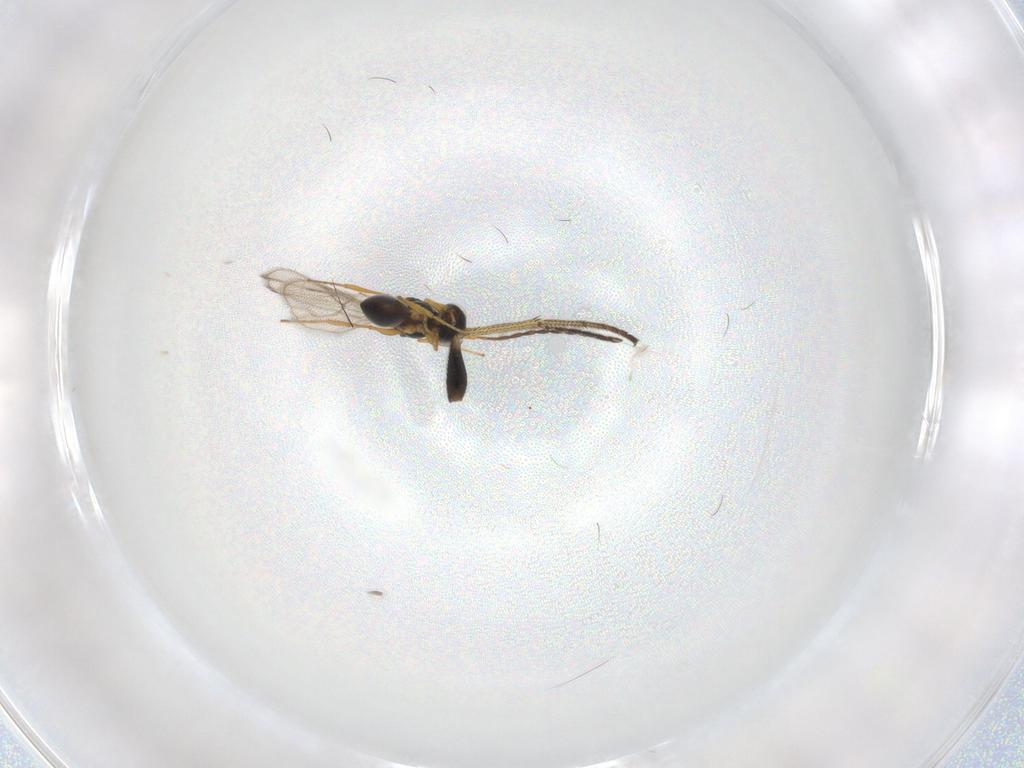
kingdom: Animalia
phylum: Arthropoda
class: Insecta
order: Hymenoptera
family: Figitidae
